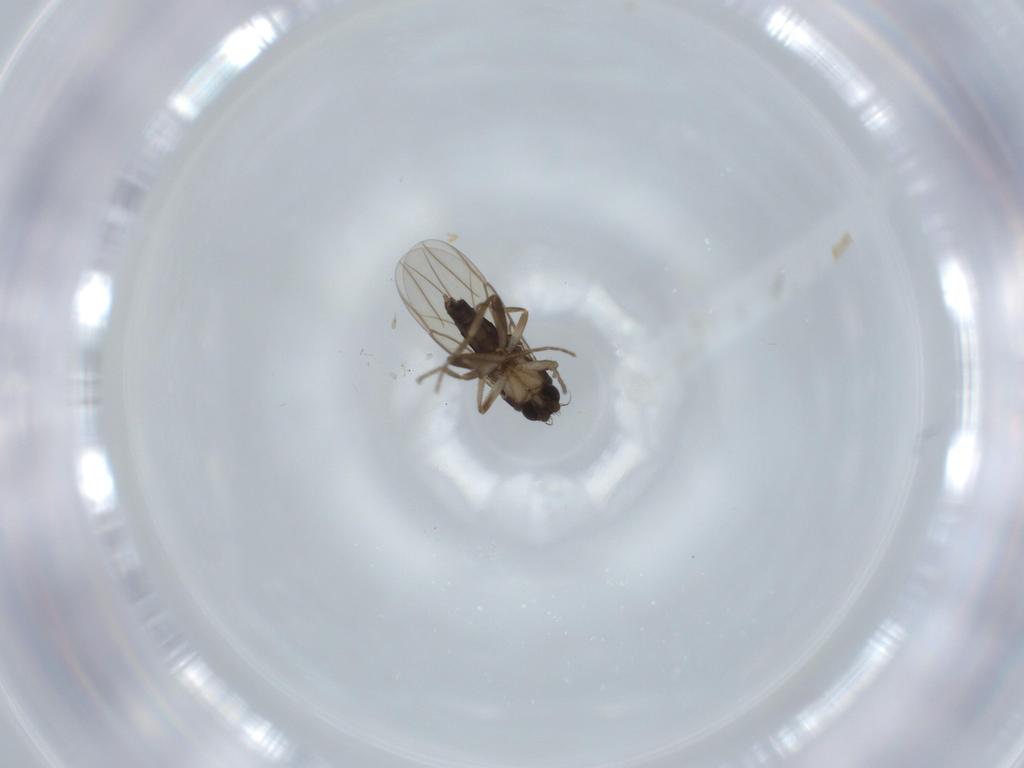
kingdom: Animalia
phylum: Arthropoda
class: Insecta
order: Diptera
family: Phoridae
